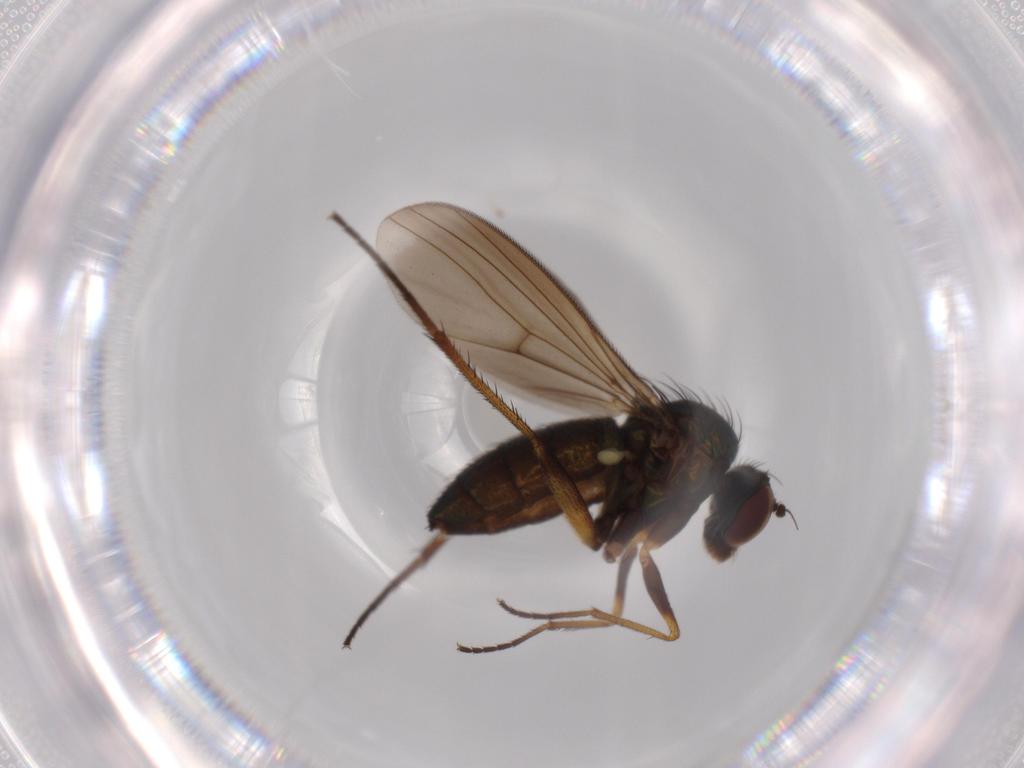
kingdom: Animalia
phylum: Arthropoda
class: Insecta
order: Diptera
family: Dolichopodidae
